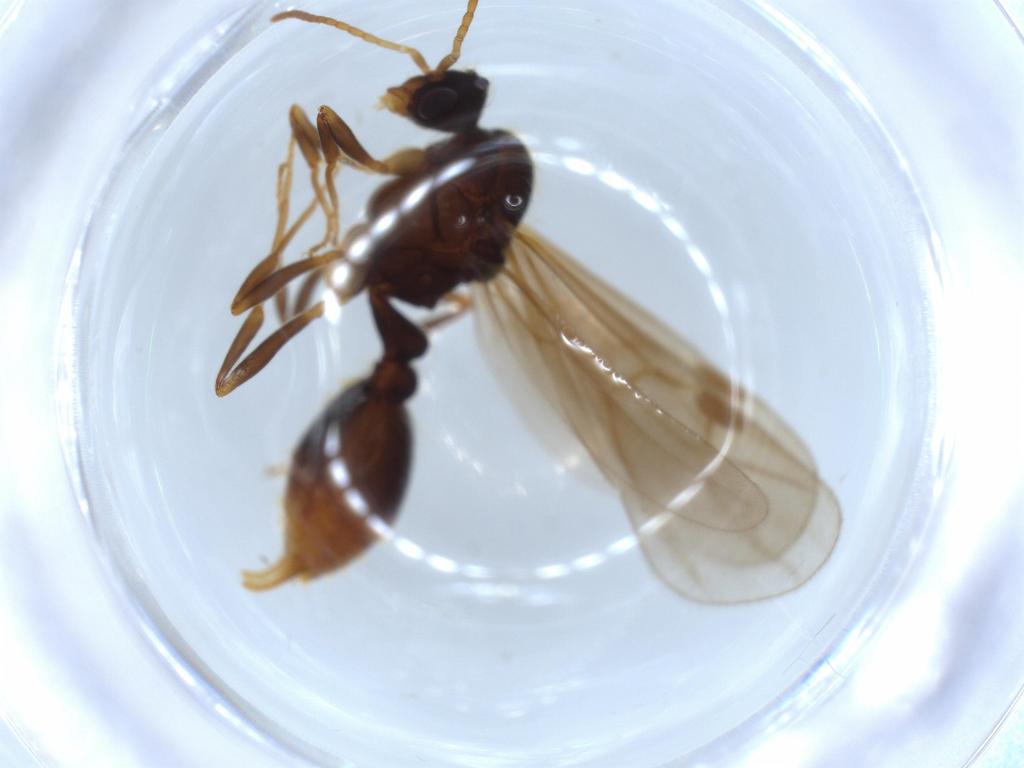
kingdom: Animalia
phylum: Arthropoda
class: Insecta
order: Hymenoptera
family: Formicidae
